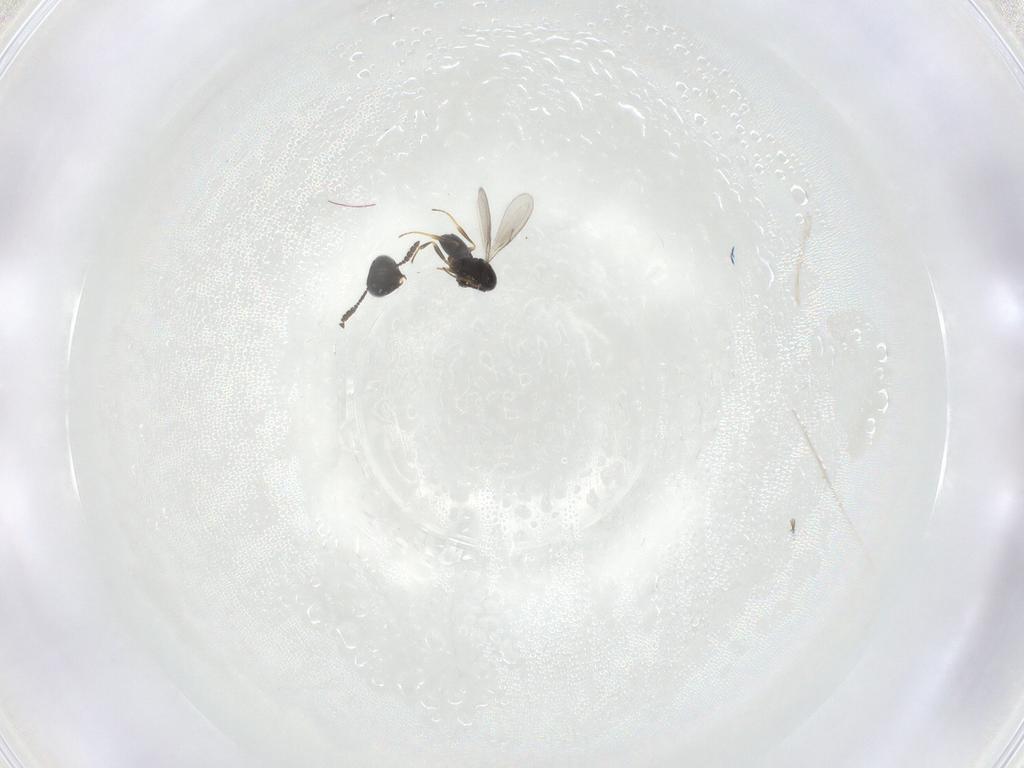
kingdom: Animalia
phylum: Arthropoda
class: Insecta
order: Hymenoptera
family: Scelionidae
